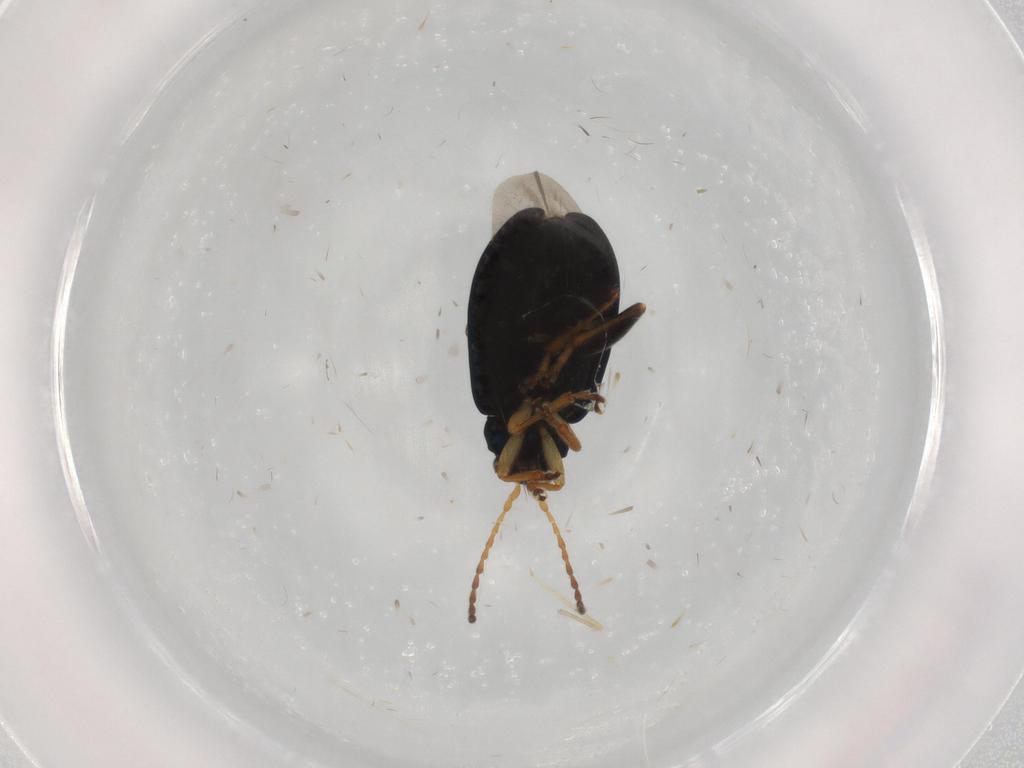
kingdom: Animalia
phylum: Arthropoda
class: Insecta
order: Coleoptera
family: Chrysomelidae
